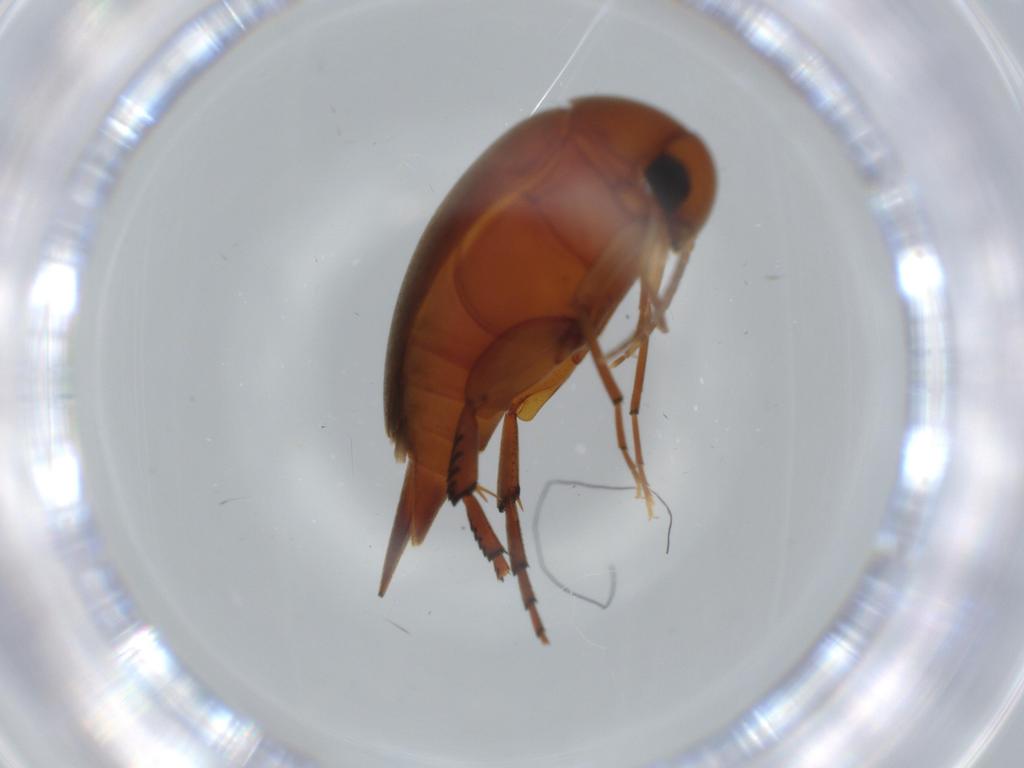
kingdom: Animalia
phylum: Arthropoda
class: Insecta
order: Coleoptera
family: Mordellidae
